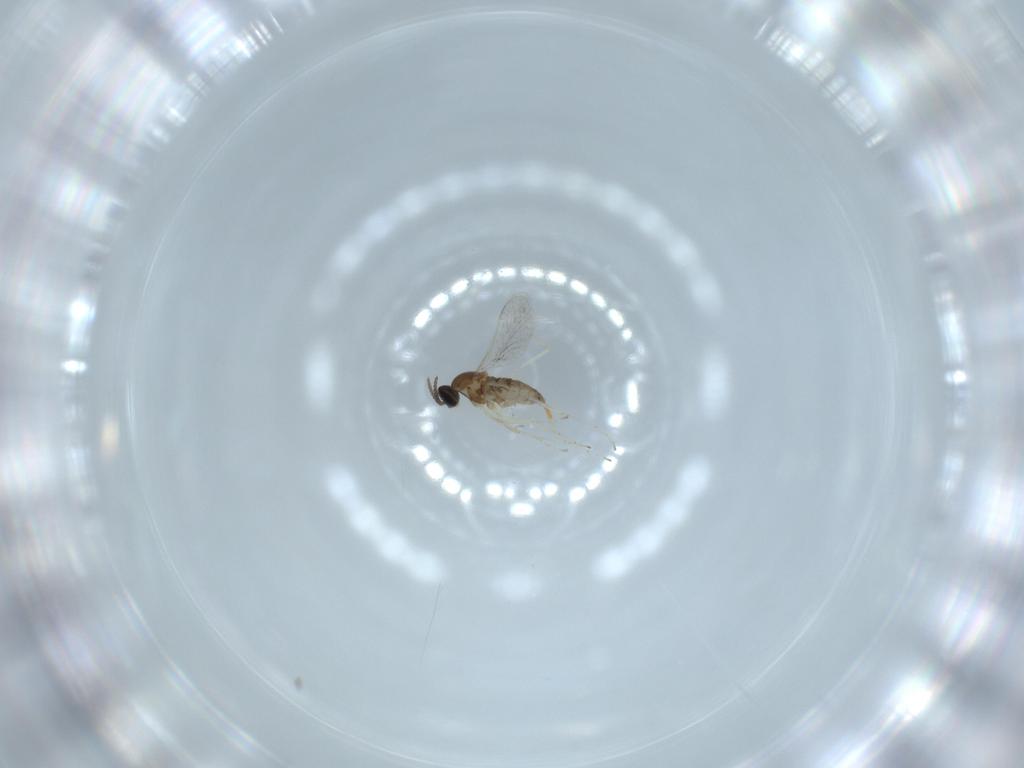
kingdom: Animalia
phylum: Arthropoda
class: Insecta
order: Diptera
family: Cecidomyiidae
